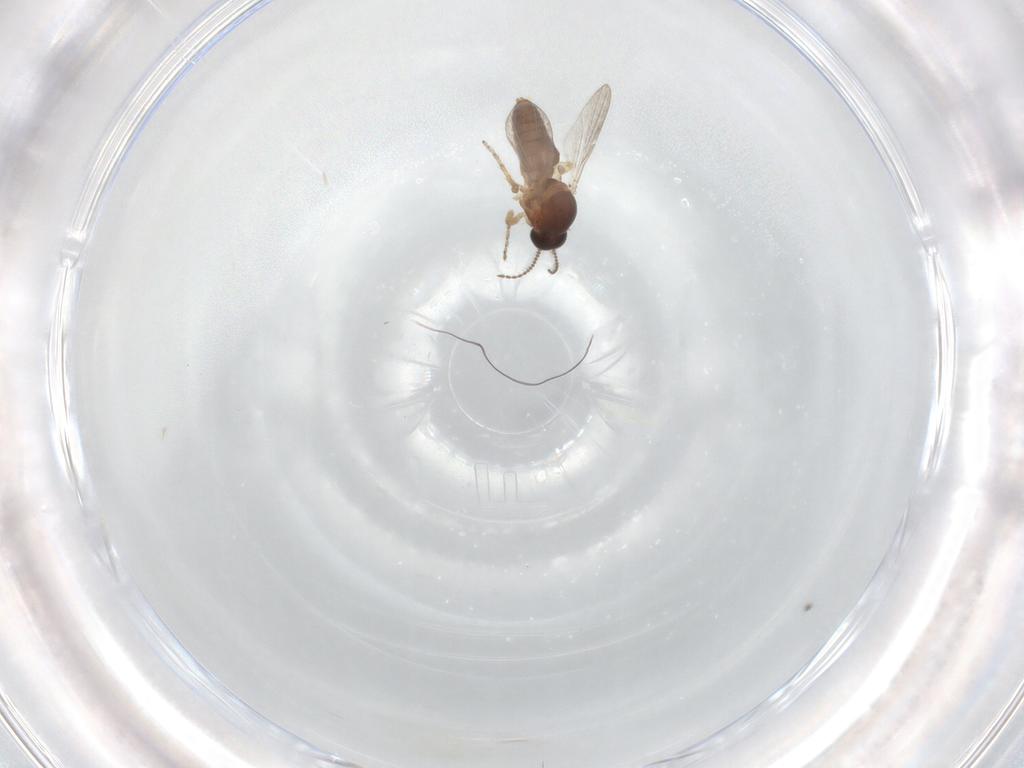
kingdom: Animalia
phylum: Arthropoda
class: Insecta
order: Diptera
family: Ceratopogonidae
